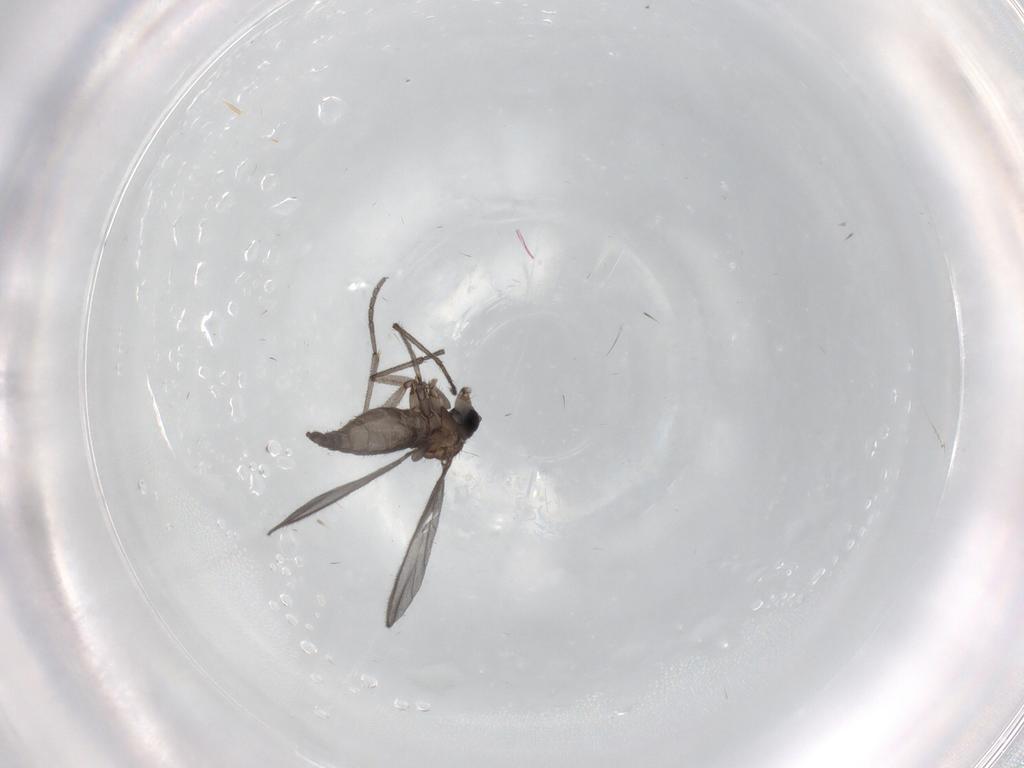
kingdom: Animalia
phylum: Arthropoda
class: Insecta
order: Diptera
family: Sciaridae
